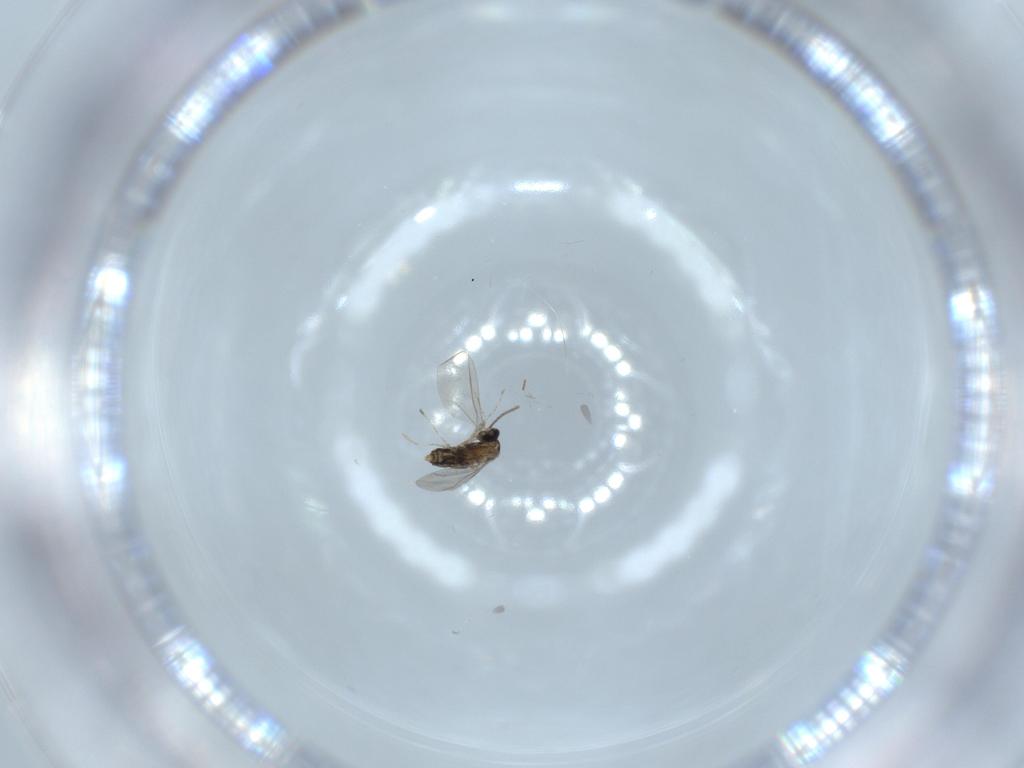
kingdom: Animalia
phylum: Arthropoda
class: Insecta
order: Diptera
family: Cecidomyiidae
